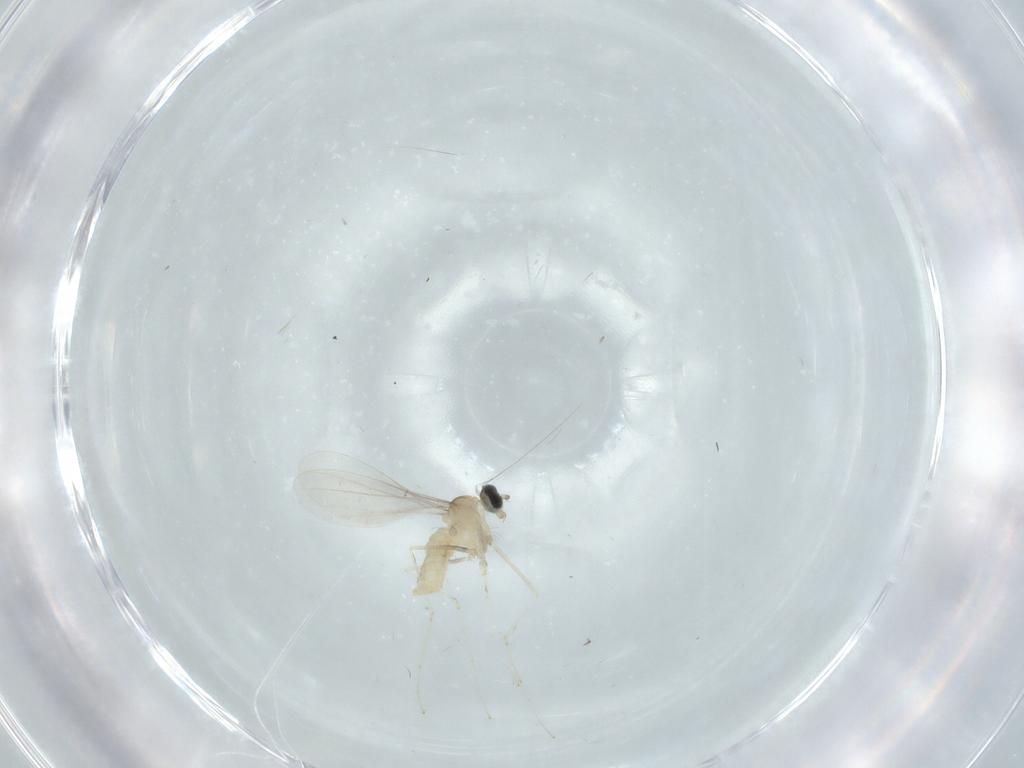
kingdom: Animalia
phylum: Arthropoda
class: Insecta
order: Diptera
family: Cecidomyiidae
